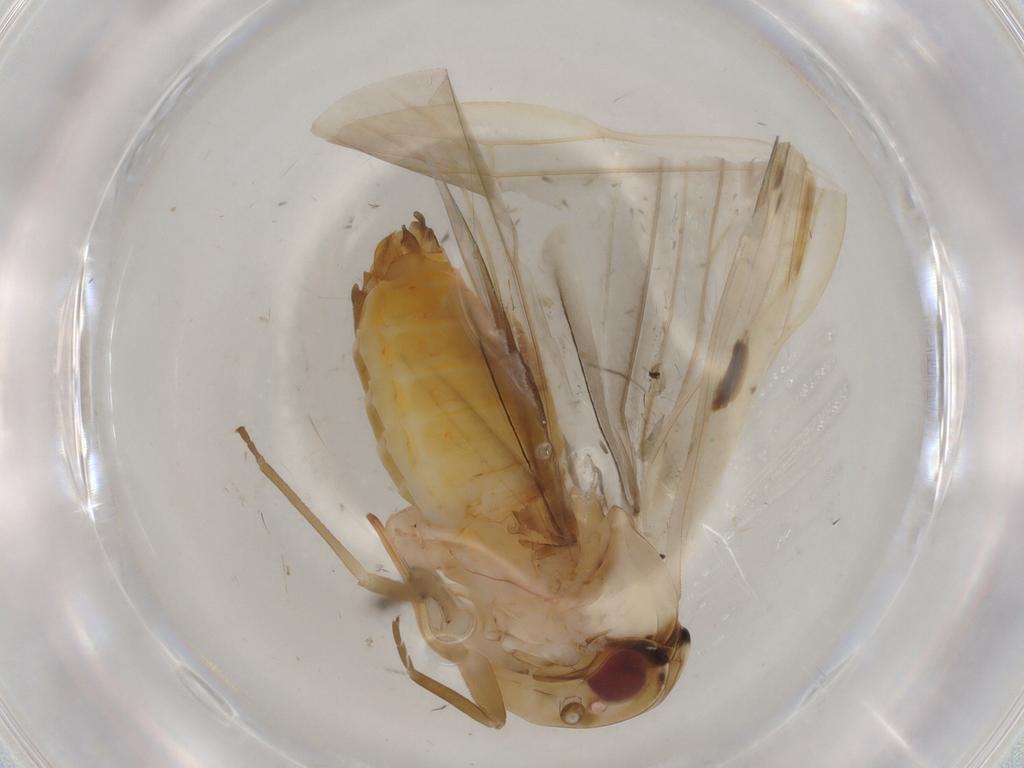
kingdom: Animalia
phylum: Arthropoda
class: Insecta
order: Hemiptera
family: Achilidae
